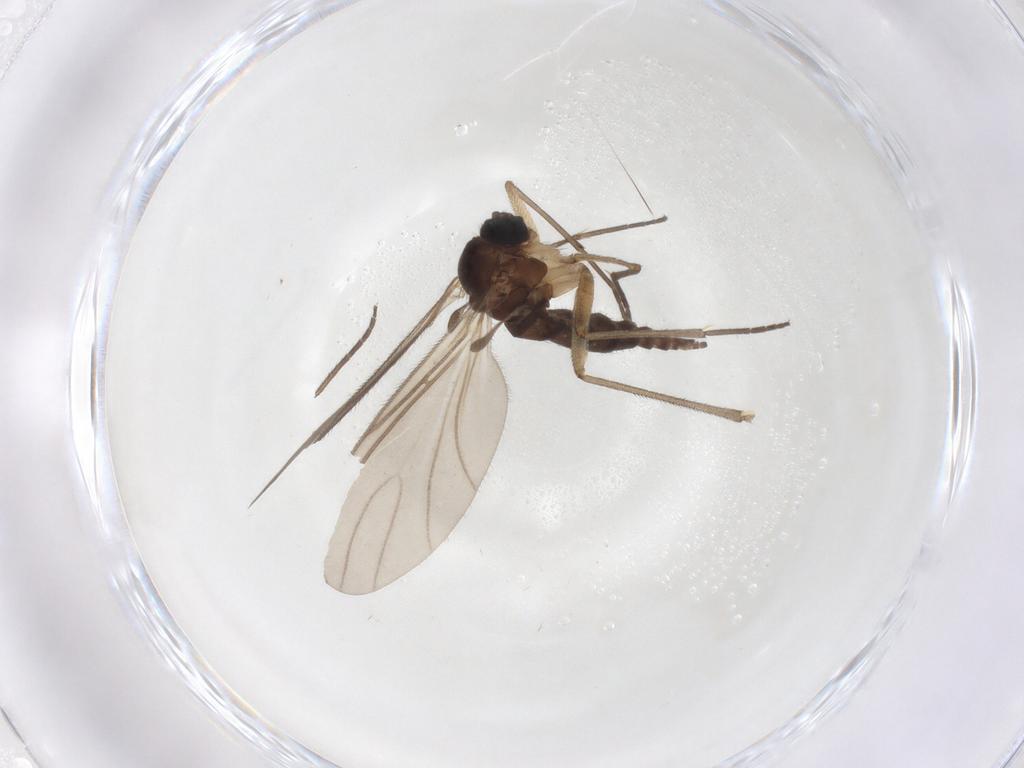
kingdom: Animalia
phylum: Arthropoda
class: Insecta
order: Diptera
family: Sciaridae
